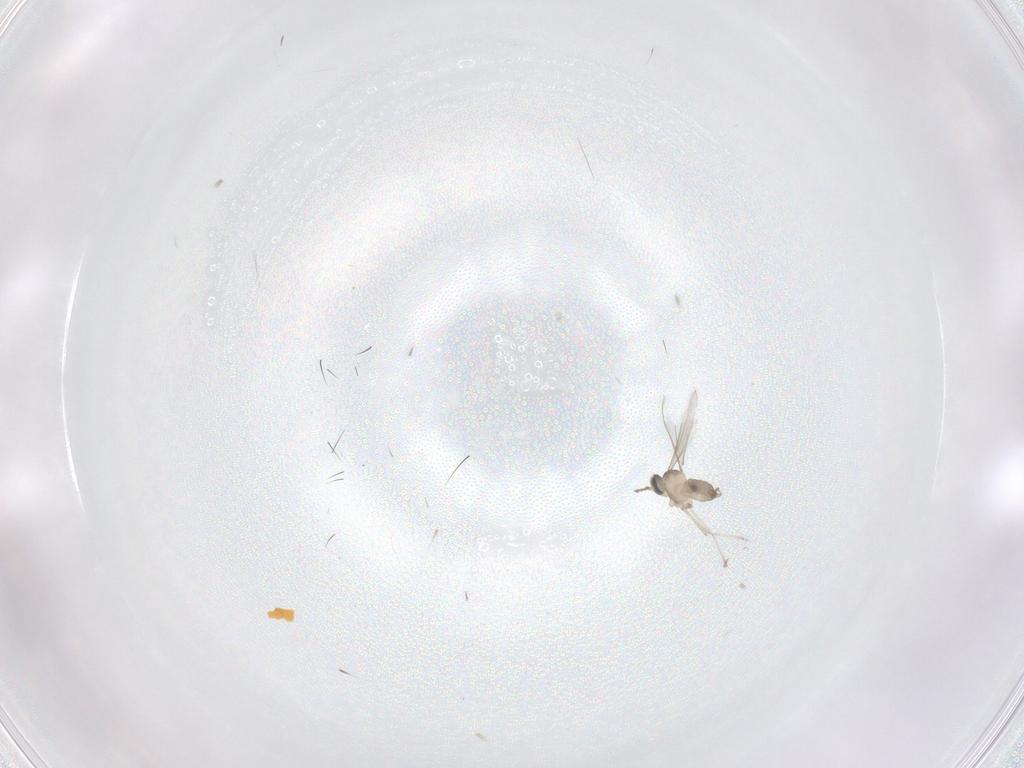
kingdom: Animalia
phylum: Arthropoda
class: Insecta
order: Diptera
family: Cecidomyiidae
